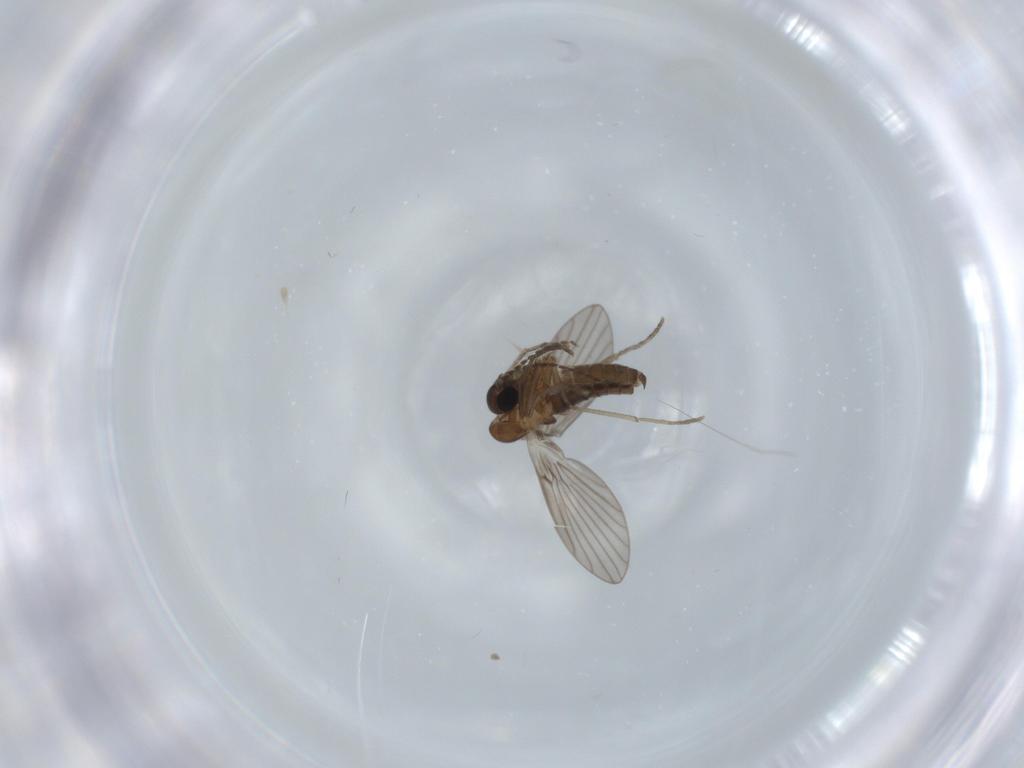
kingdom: Animalia
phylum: Arthropoda
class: Insecta
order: Diptera
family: Psychodidae
